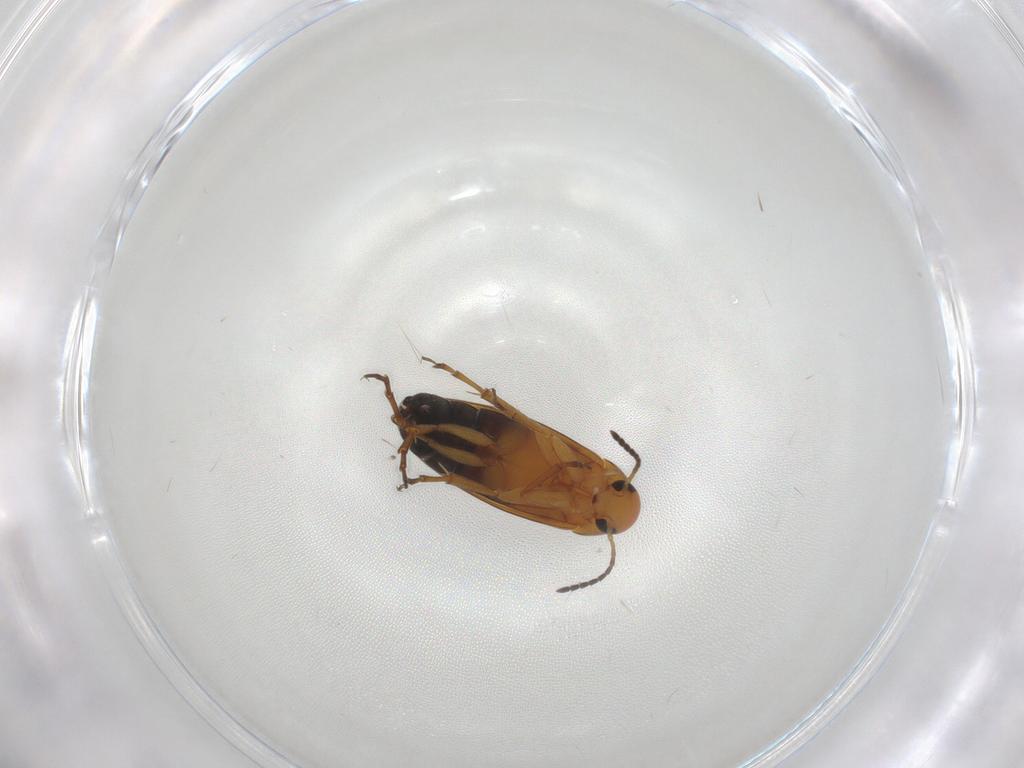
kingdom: Animalia
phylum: Arthropoda
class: Insecta
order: Coleoptera
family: Scraptiidae
